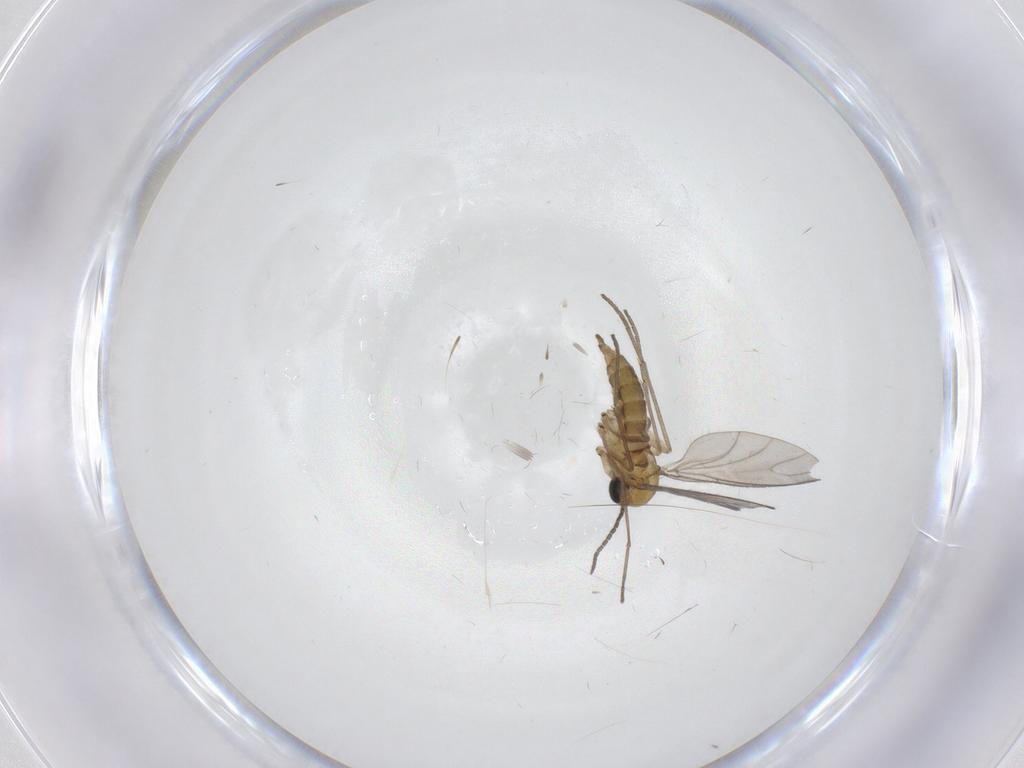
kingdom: Animalia
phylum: Arthropoda
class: Insecta
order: Diptera
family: Sciaridae
